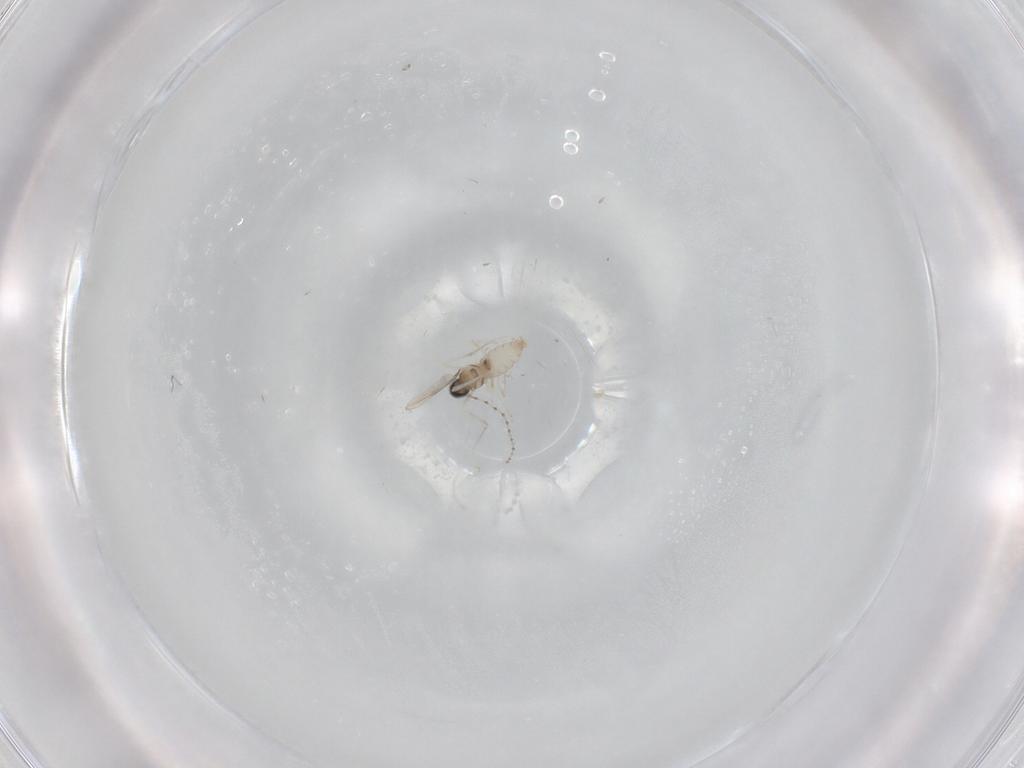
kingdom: Animalia
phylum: Arthropoda
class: Insecta
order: Diptera
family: Cecidomyiidae
